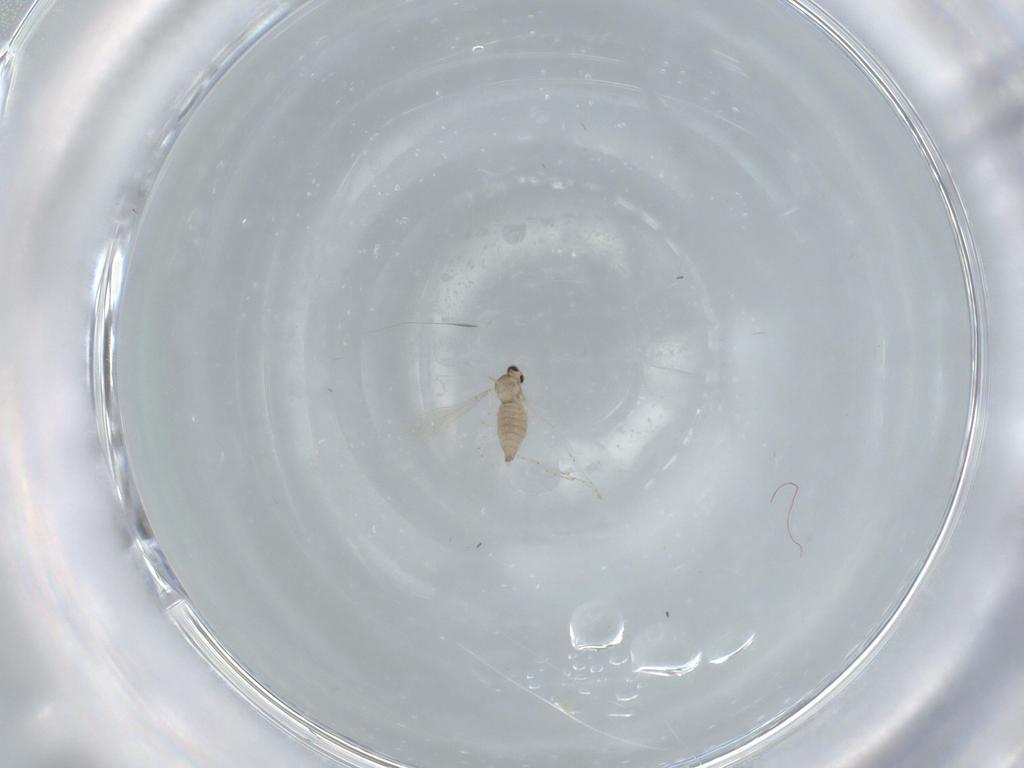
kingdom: Animalia
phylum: Arthropoda
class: Insecta
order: Diptera
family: Cecidomyiidae
